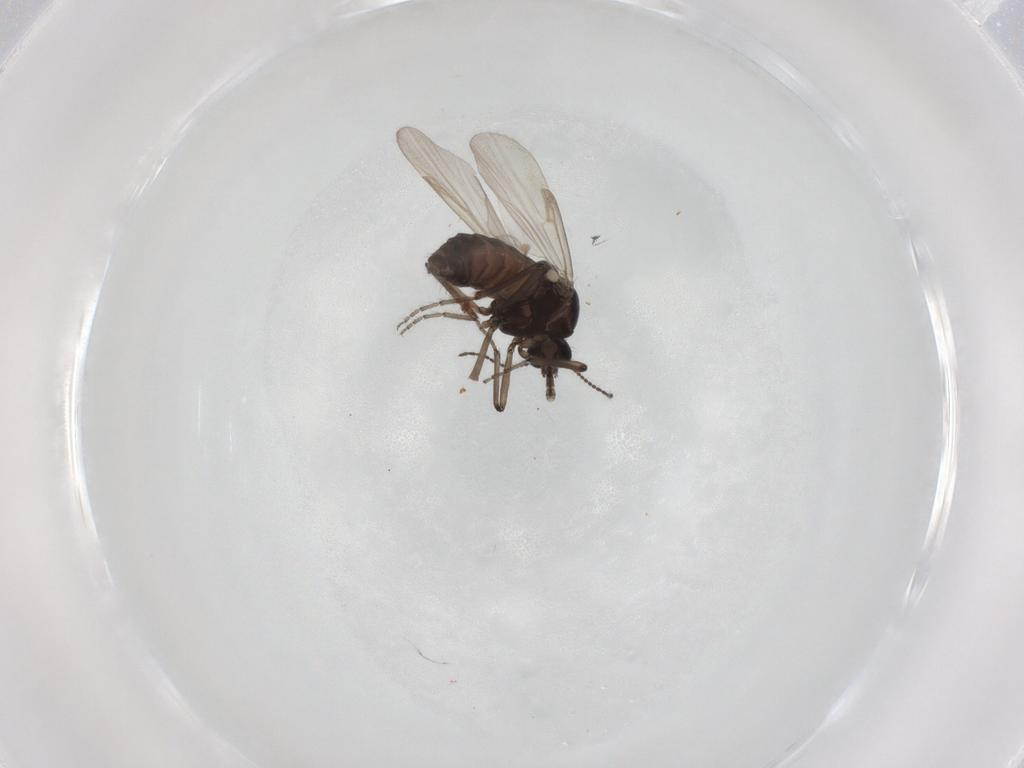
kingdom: Animalia
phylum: Arthropoda
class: Insecta
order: Diptera
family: Ceratopogonidae
